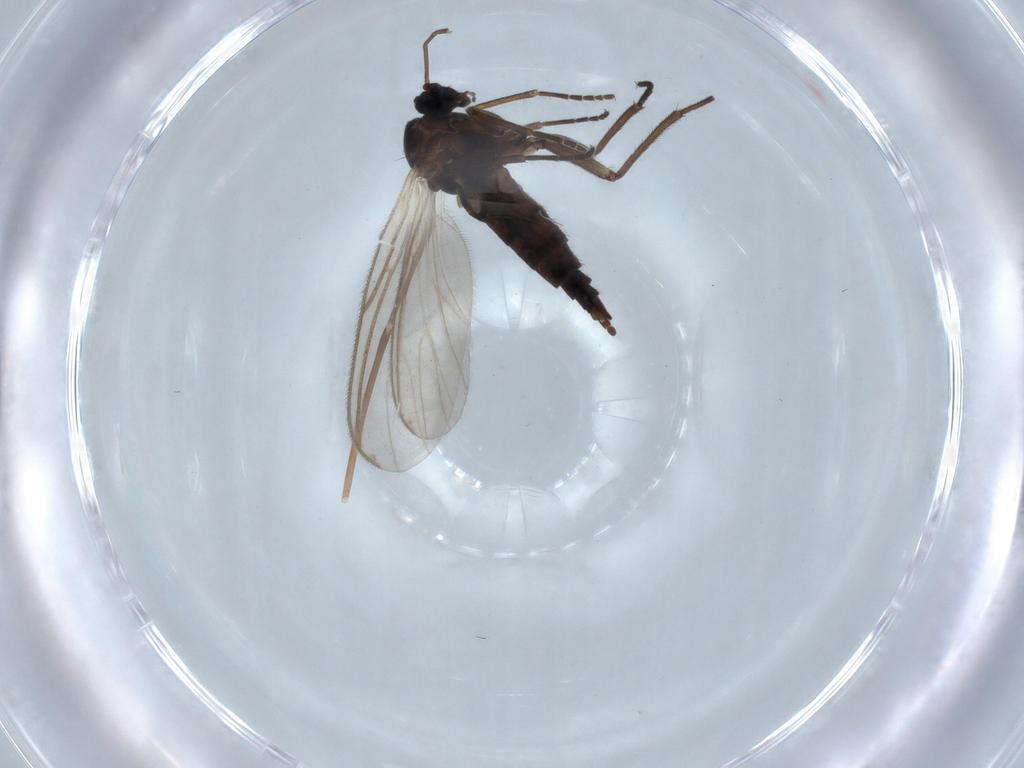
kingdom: Animalia
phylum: Arthropoda
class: Insecta
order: Diptera
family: Sciaridae
